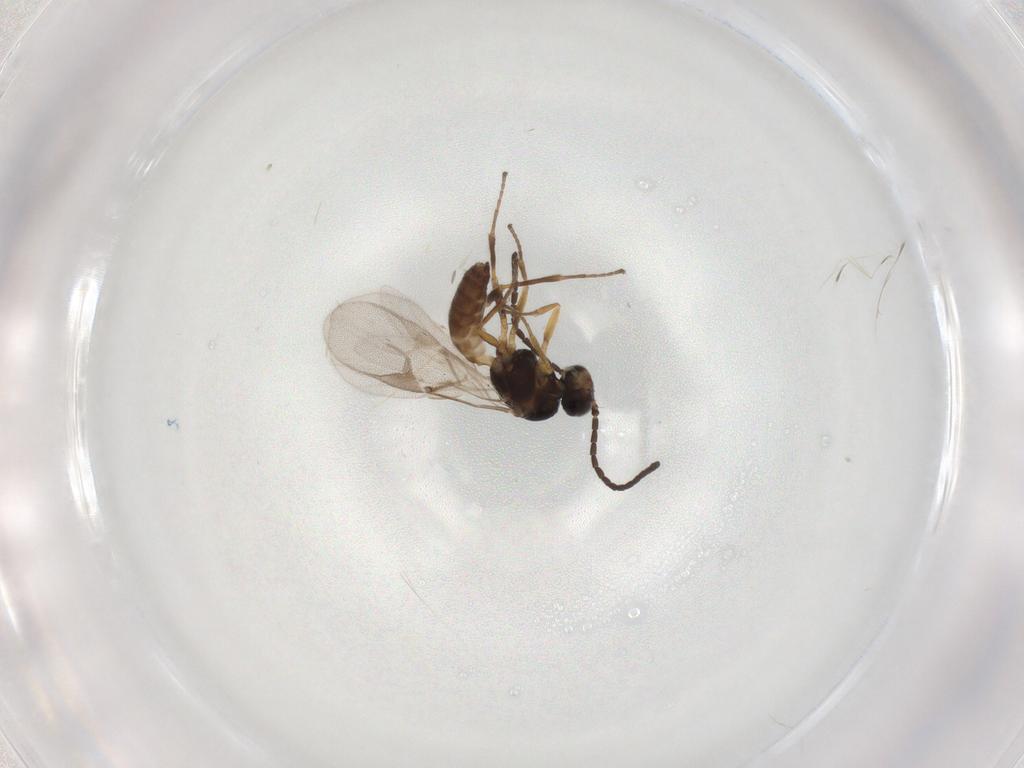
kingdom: Animalia
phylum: Arthropoda
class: Insecta
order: Hymenoptera
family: Braconidae
